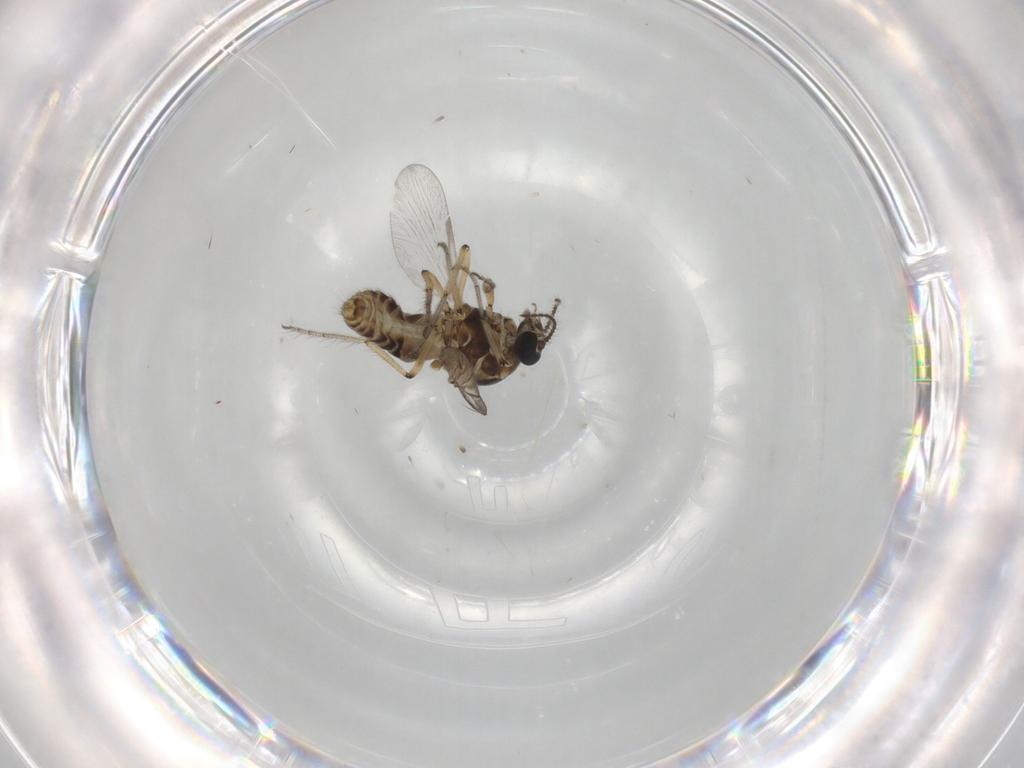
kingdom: Animalia
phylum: Arthropoda
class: Insecta
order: Diptera
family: Ceratopogonidae
